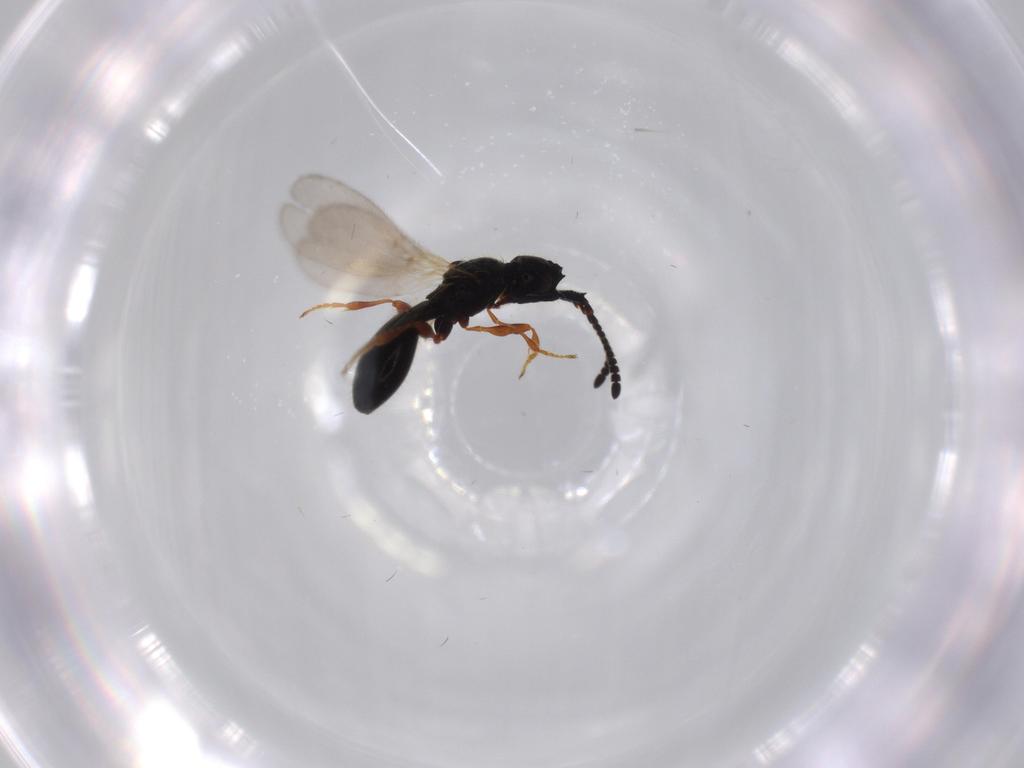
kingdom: Animalia
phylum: Arthropoda
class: Insecta
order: Hymenoptera
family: Diapriidae
